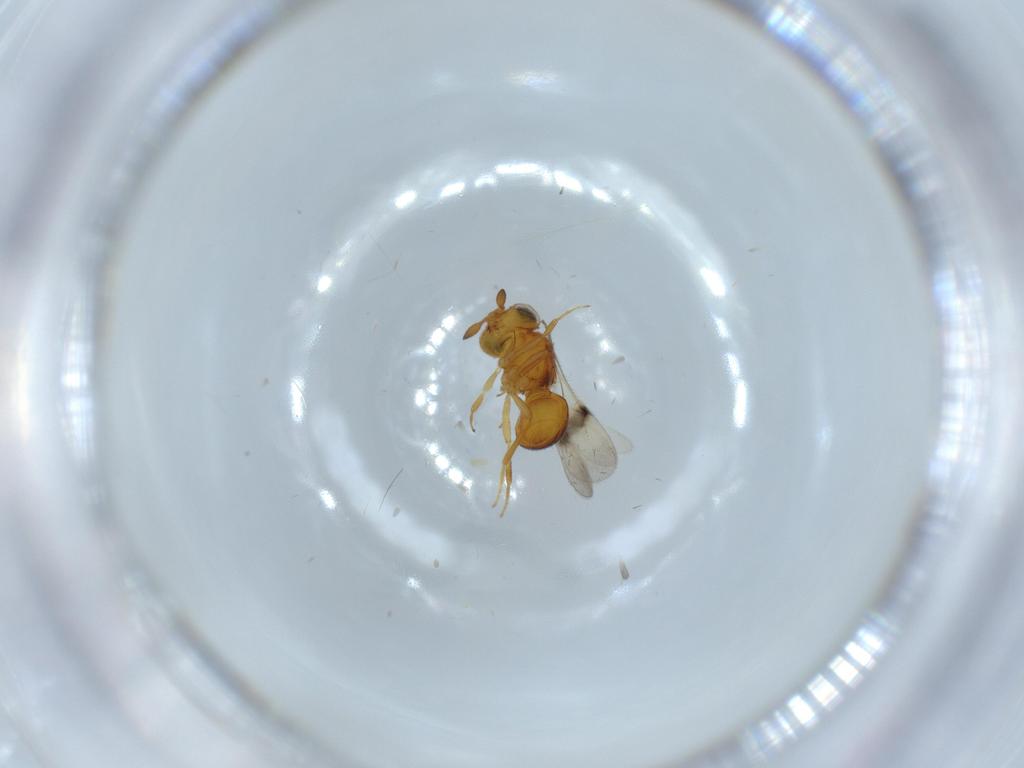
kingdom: Animalia
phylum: Arthropoda
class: Insecta
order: Hymenoptera
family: Scelionidae
